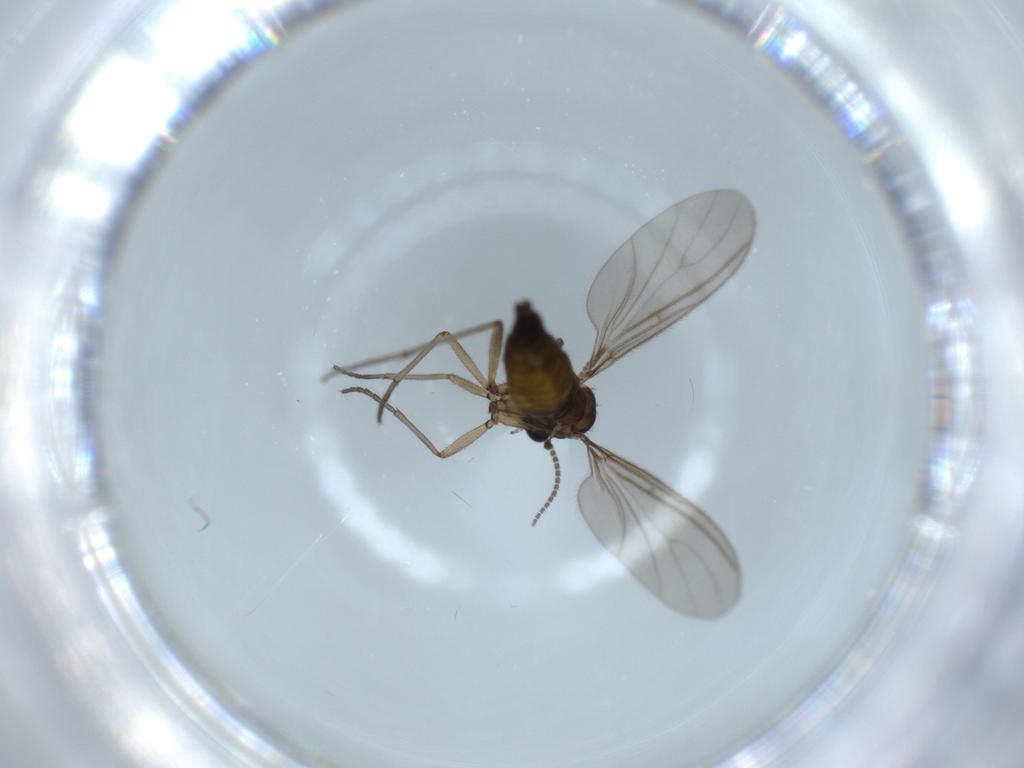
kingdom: Animalia
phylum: Arthropoda
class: Insecta
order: Diptera
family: Sciaridae
